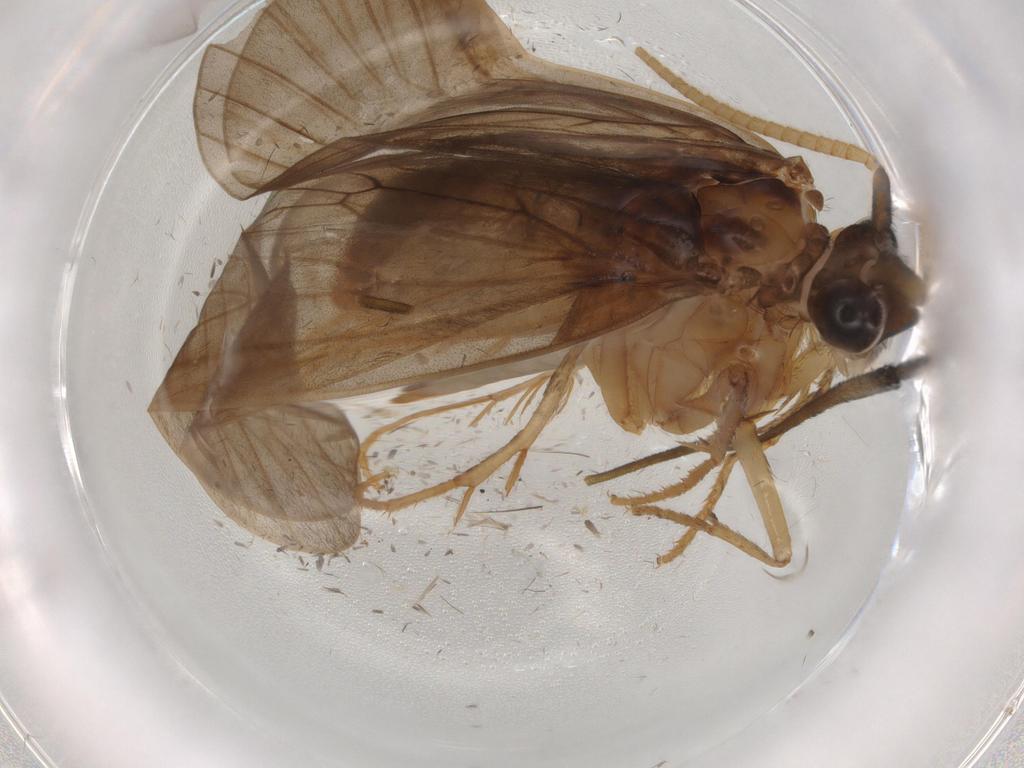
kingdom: Animalia
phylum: Arthropoda
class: Insecta
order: Trichoptera
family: Lepidostomatidae
